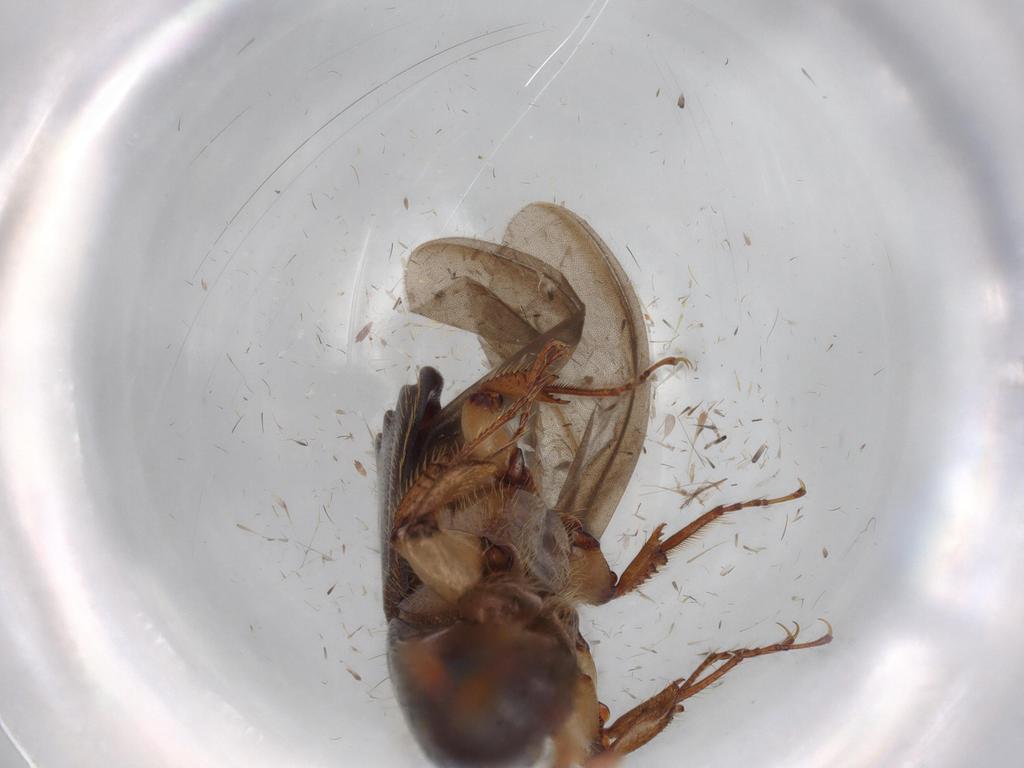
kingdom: Animalia
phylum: Arthropoda
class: Insecta
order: Coleoptera
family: Curculionidae
